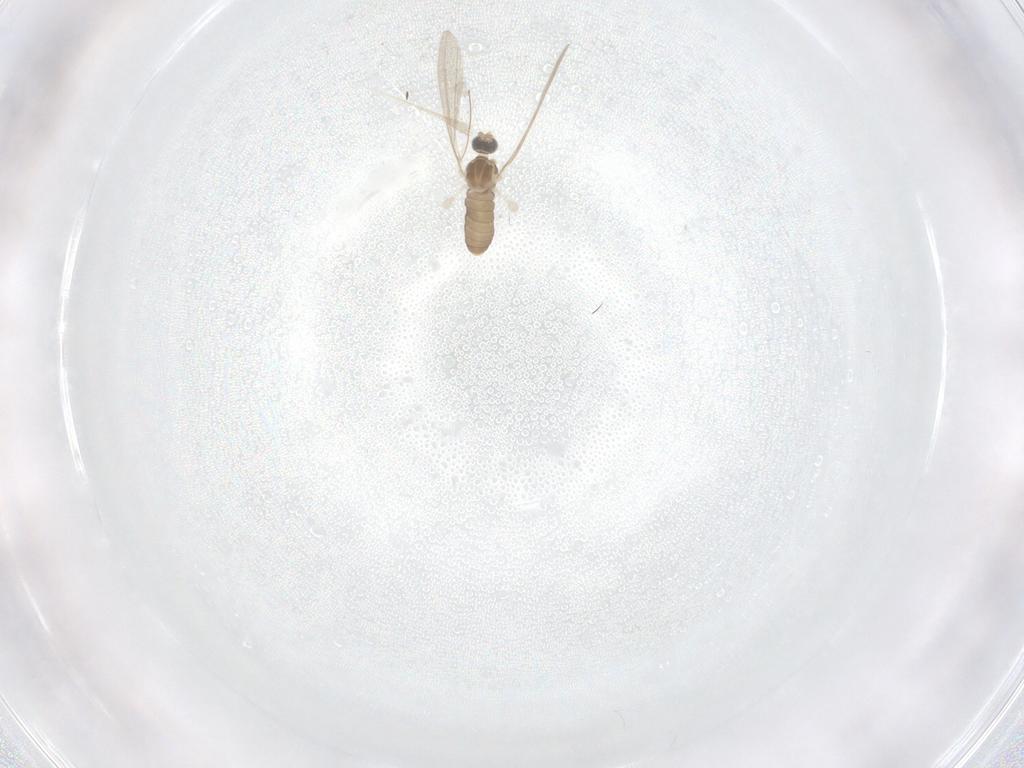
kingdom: Animalia
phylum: Arthropoda
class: Insecta
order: Diptera
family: Cecidomyiidae
